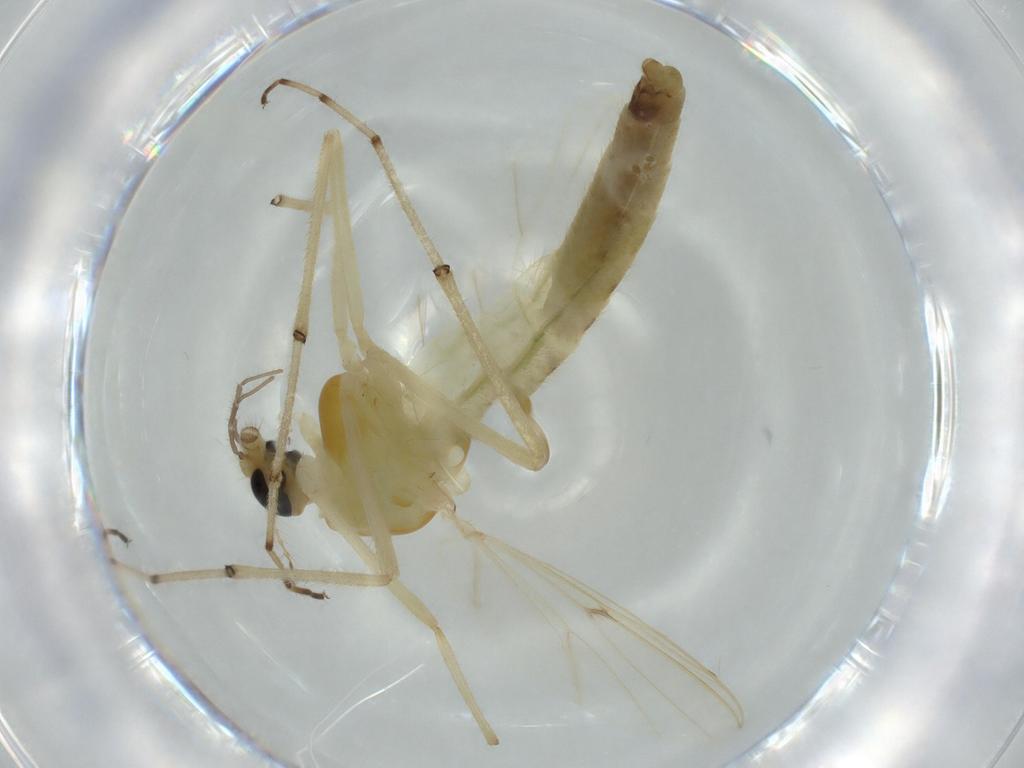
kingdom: Animalia
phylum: Arthropoda
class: Insecta
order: Diptera
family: Chironomidae
